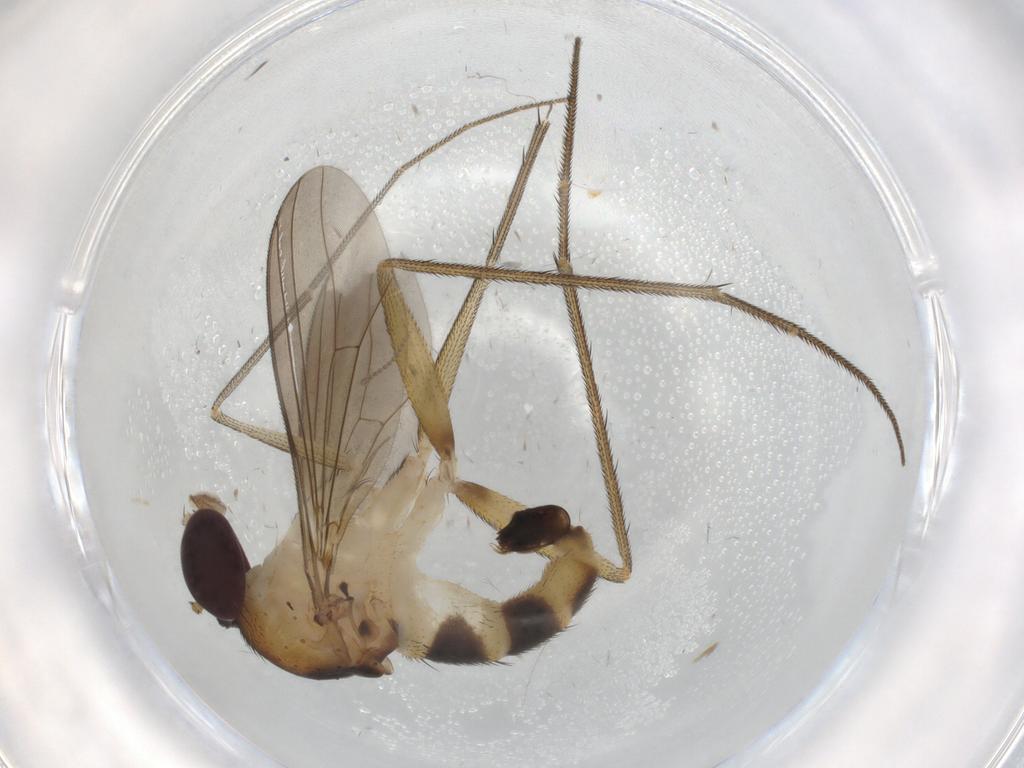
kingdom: Animalia
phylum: Arthropoda
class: Insecta
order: Diptera
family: Dolichopodidae
